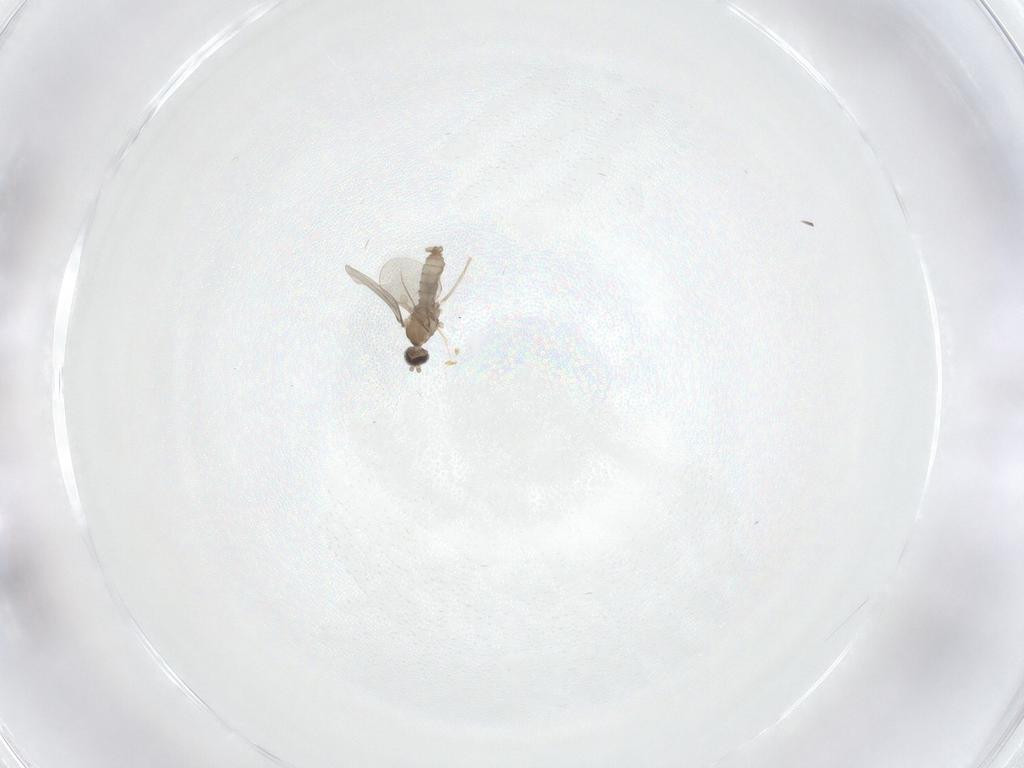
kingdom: Animalia
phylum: Arthropoda
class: Insecta
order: Diptera
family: Cecidomyiidae
